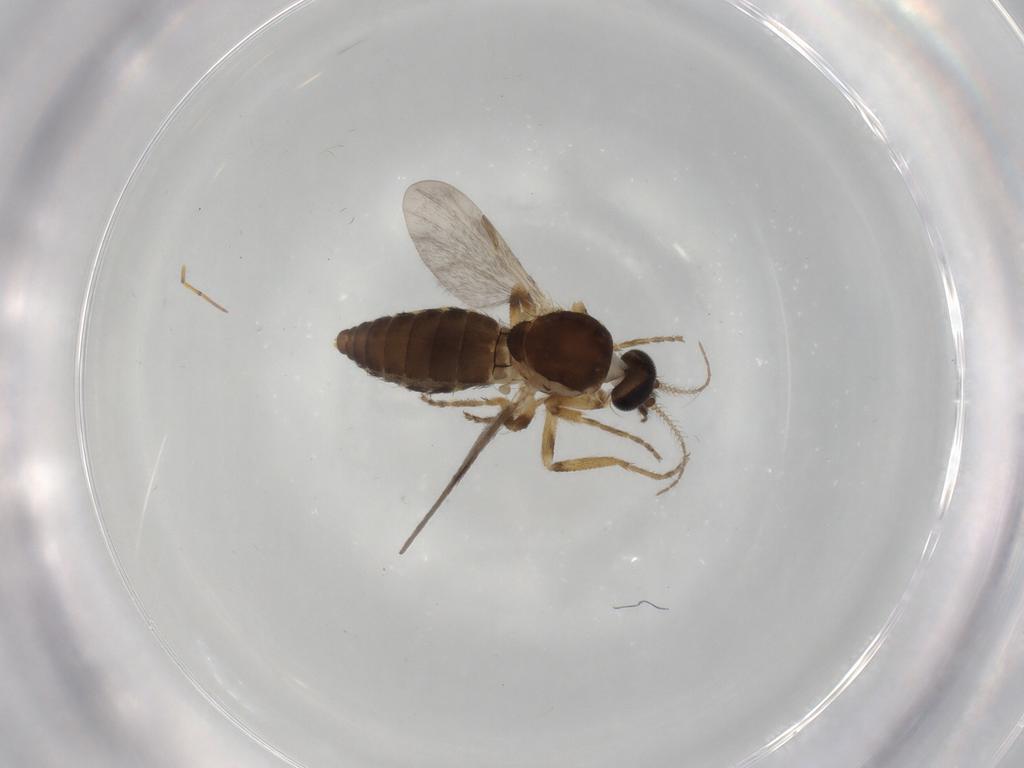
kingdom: Animalia
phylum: Arthropoda
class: Insecta
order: Diptera
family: Ceratopogonidae
